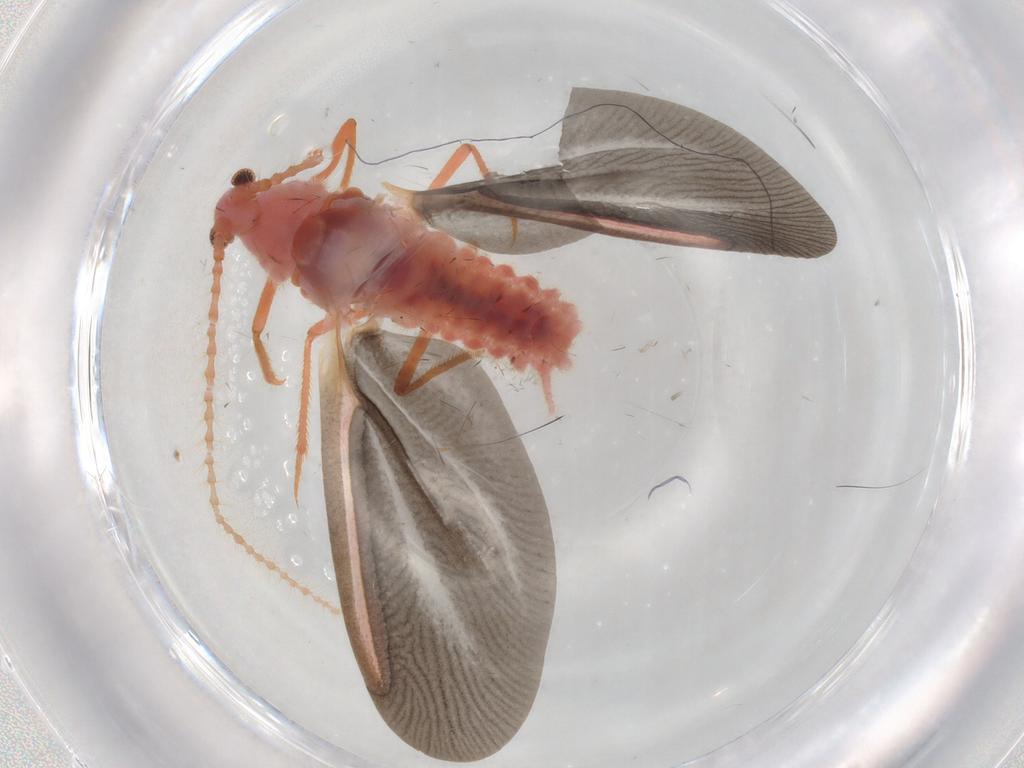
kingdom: Animalia
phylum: Arthropoda
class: Insecta
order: Hemiptera
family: Coccoidea_incertae_sedis
